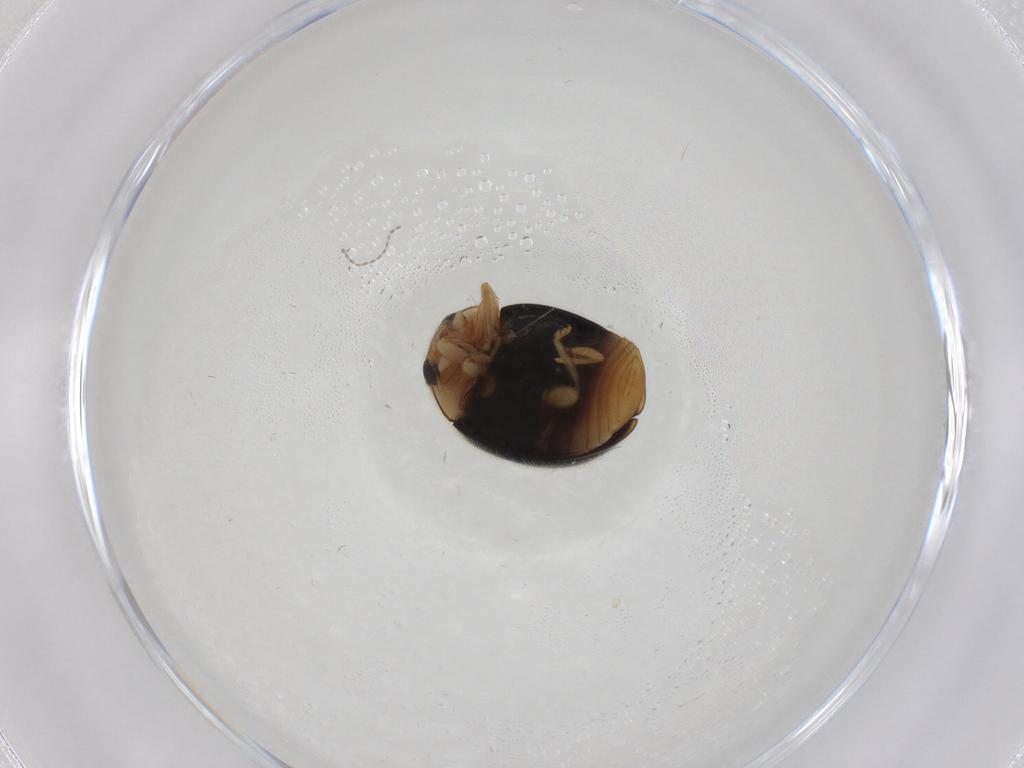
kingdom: Animalia
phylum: Arthropoda
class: Insecta
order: Coleoptera
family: Coccinellidae
